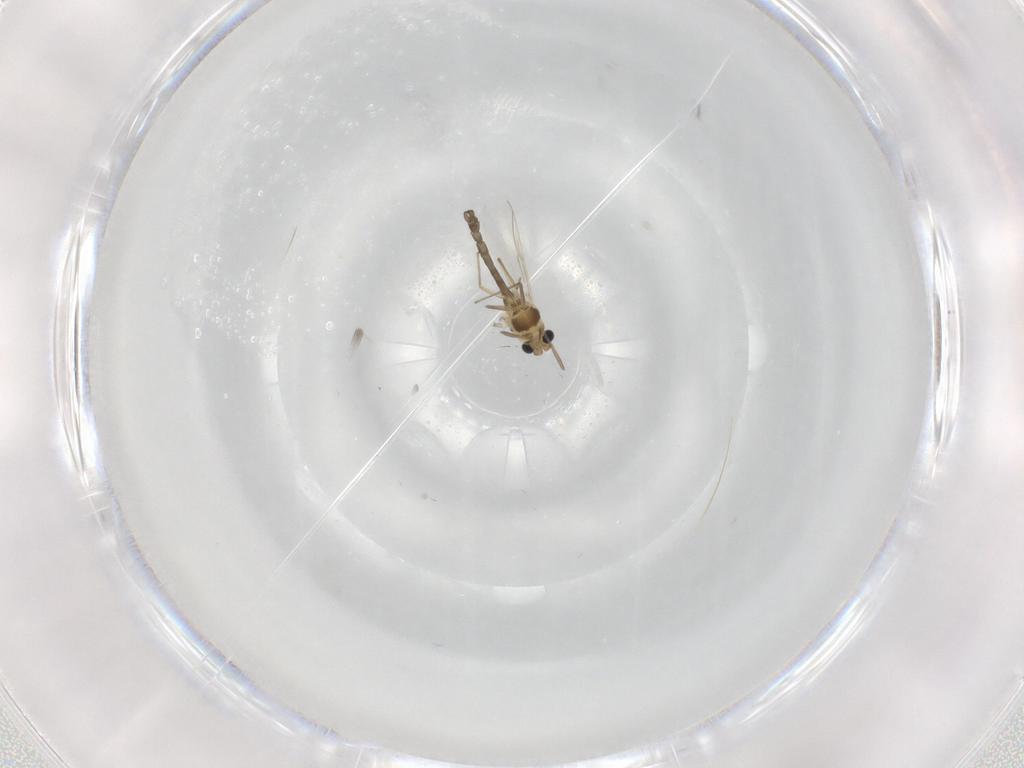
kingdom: Animalia
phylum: Arthropoda
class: Insecta
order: Diptera
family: Chironomidae
